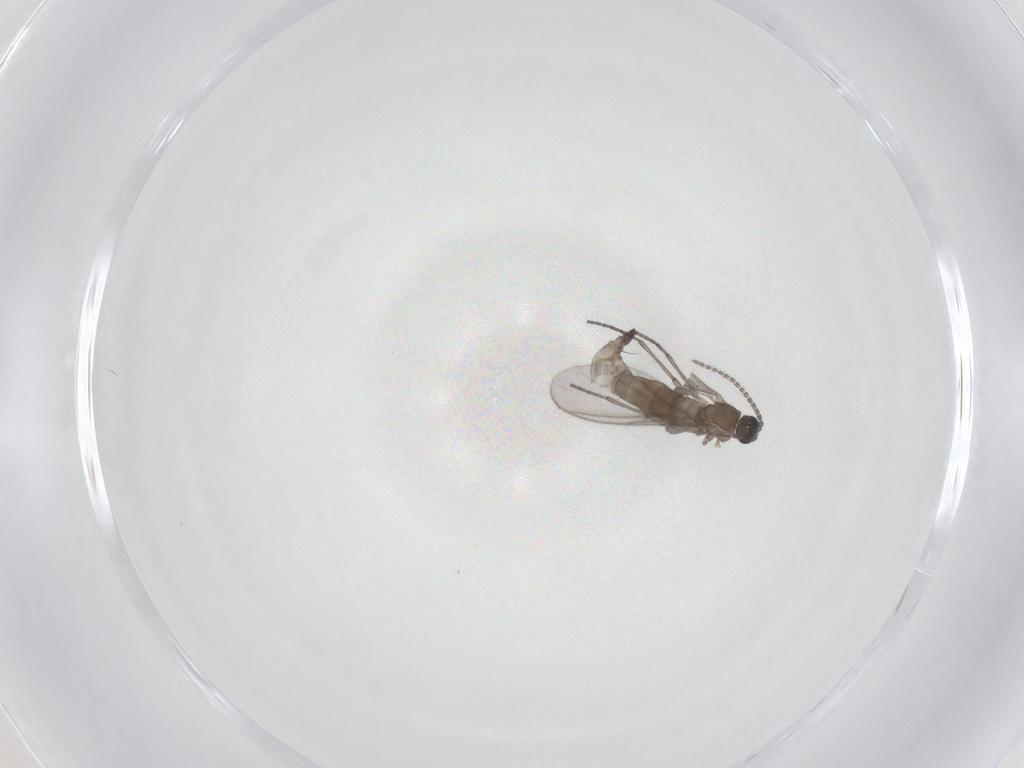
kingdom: Animalia
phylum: Arthropoda
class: Insecta
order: Diptera
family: Sciaridae
